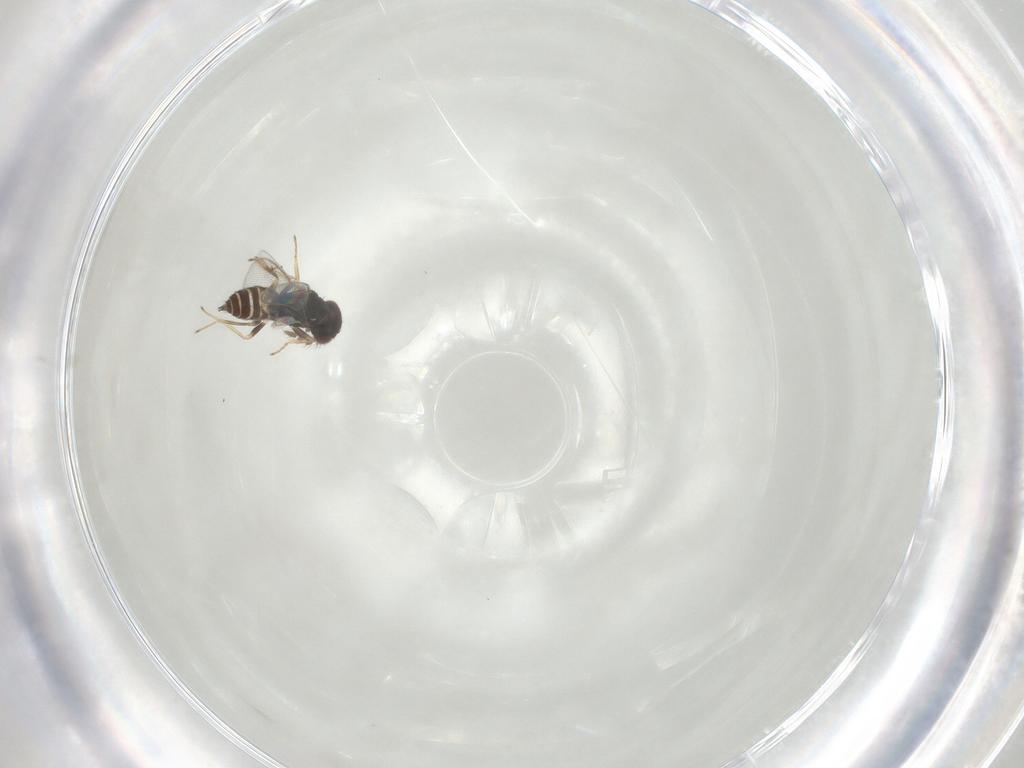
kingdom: Animalia
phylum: Arthropoda
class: Insecta
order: Hymenoptera
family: Eulophidae
